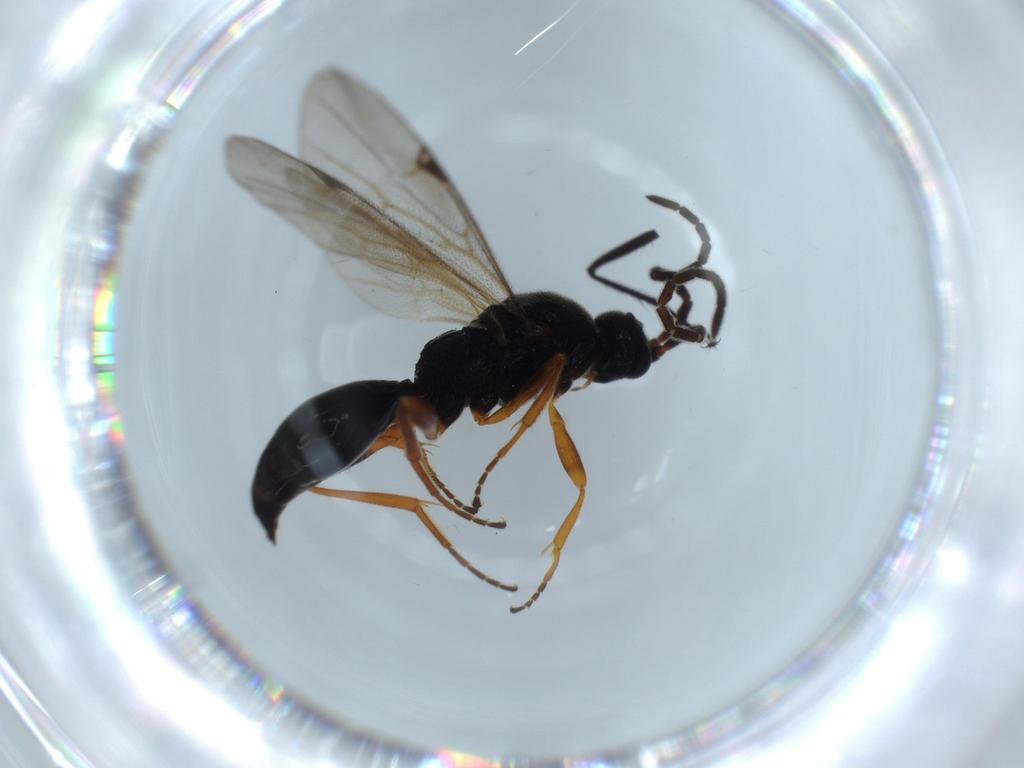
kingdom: Animalia
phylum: Arthropoda
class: Insecta
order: Hymenoptera
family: Proctotrupidae
